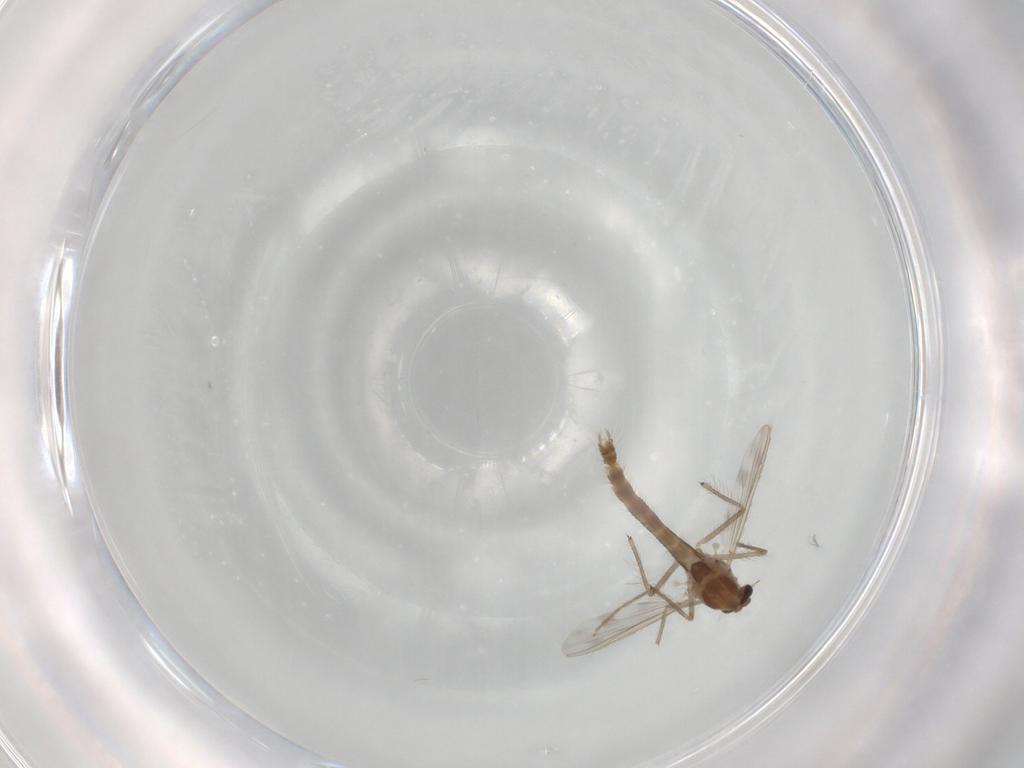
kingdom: Animalia
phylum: Arthropoda
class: Insecta
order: Diptera
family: Chironomidae
